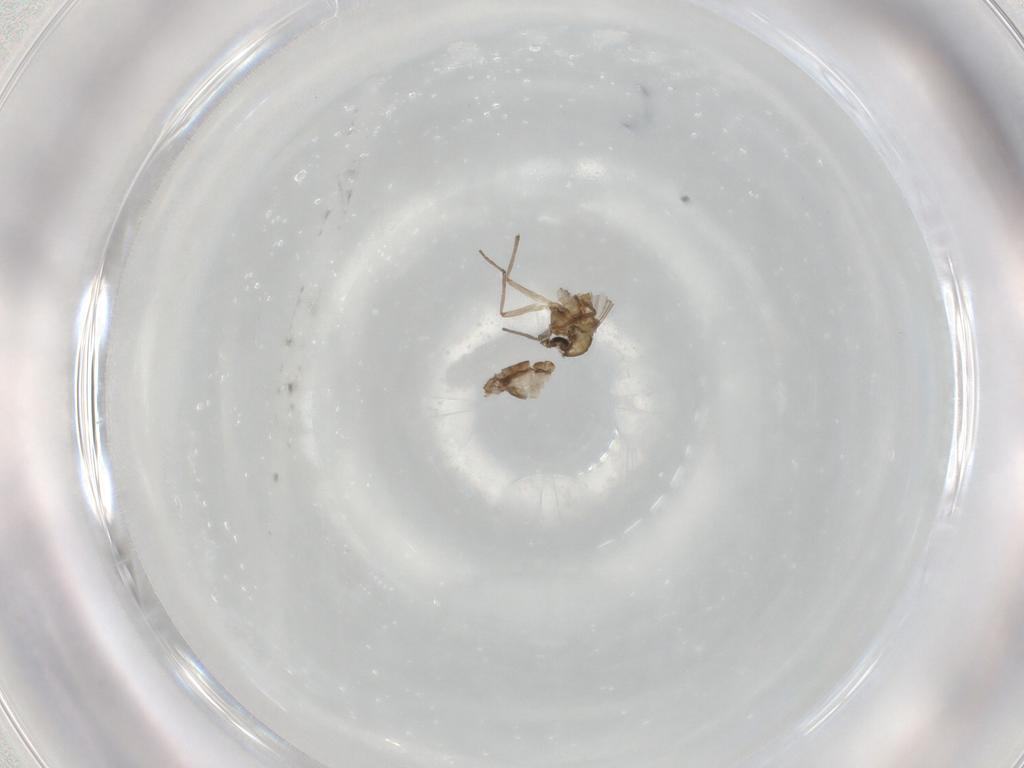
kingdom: Animalia
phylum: Arthropoda
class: Insecta
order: Diptera
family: Chironomidae
